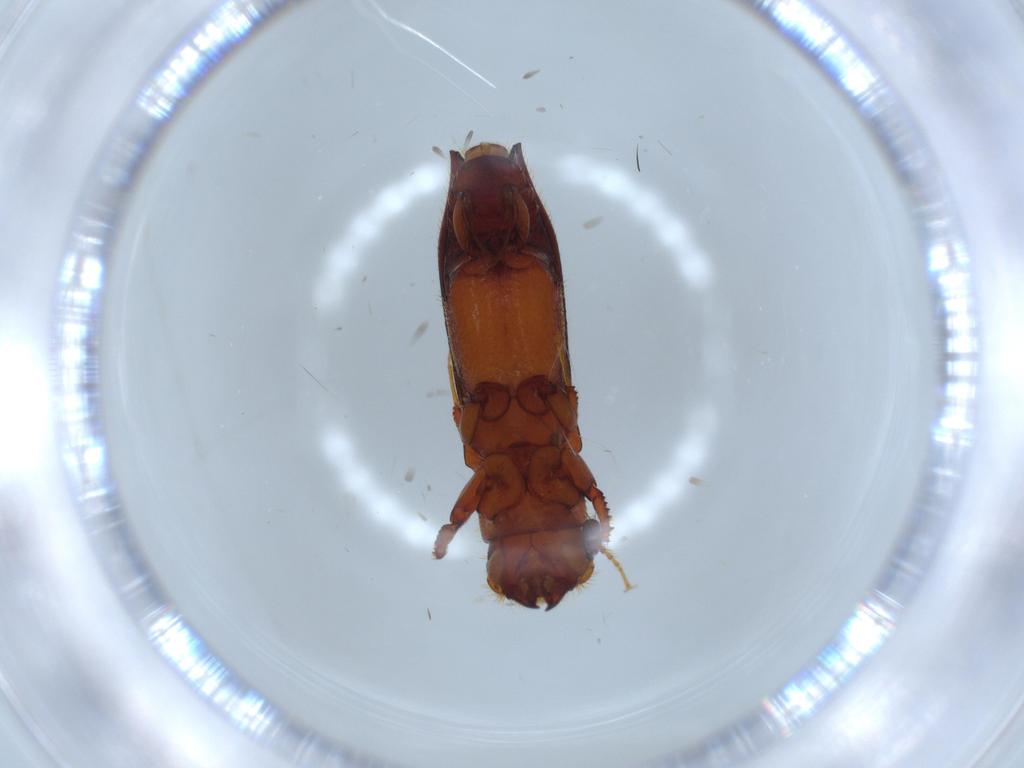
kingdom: Animalia
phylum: Arthropoda
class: Insecta
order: Coleoptera
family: Curculionidae
